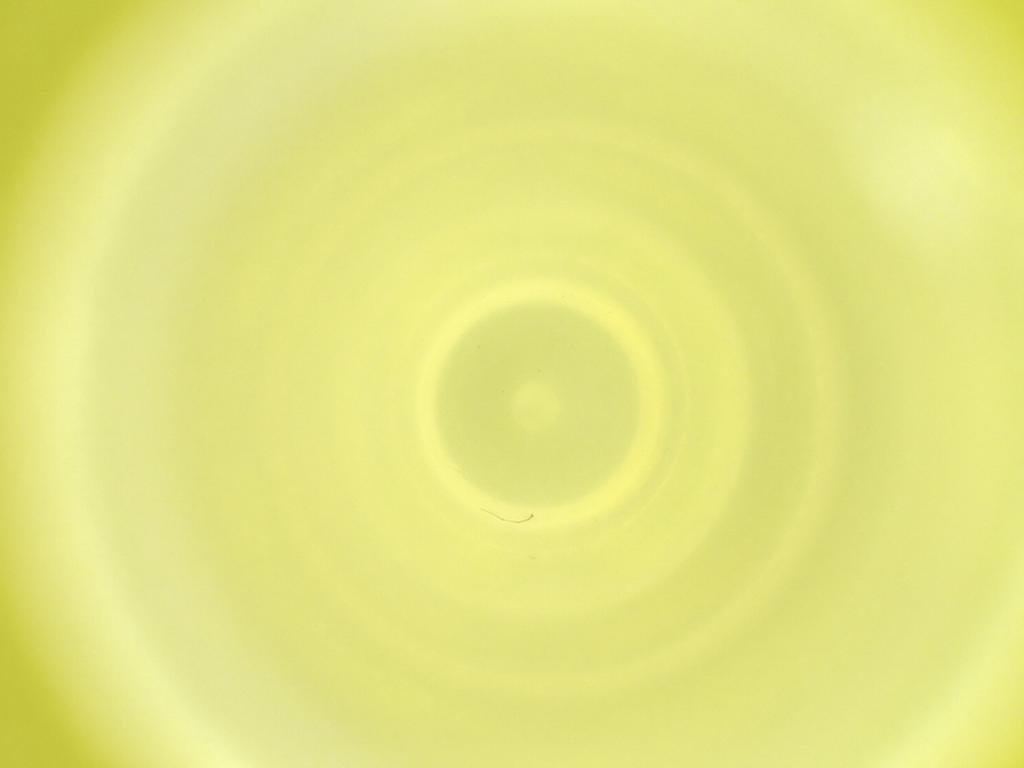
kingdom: Animalia
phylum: Arthropoda
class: Insecta
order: Diptera
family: Cecidomyiidae
